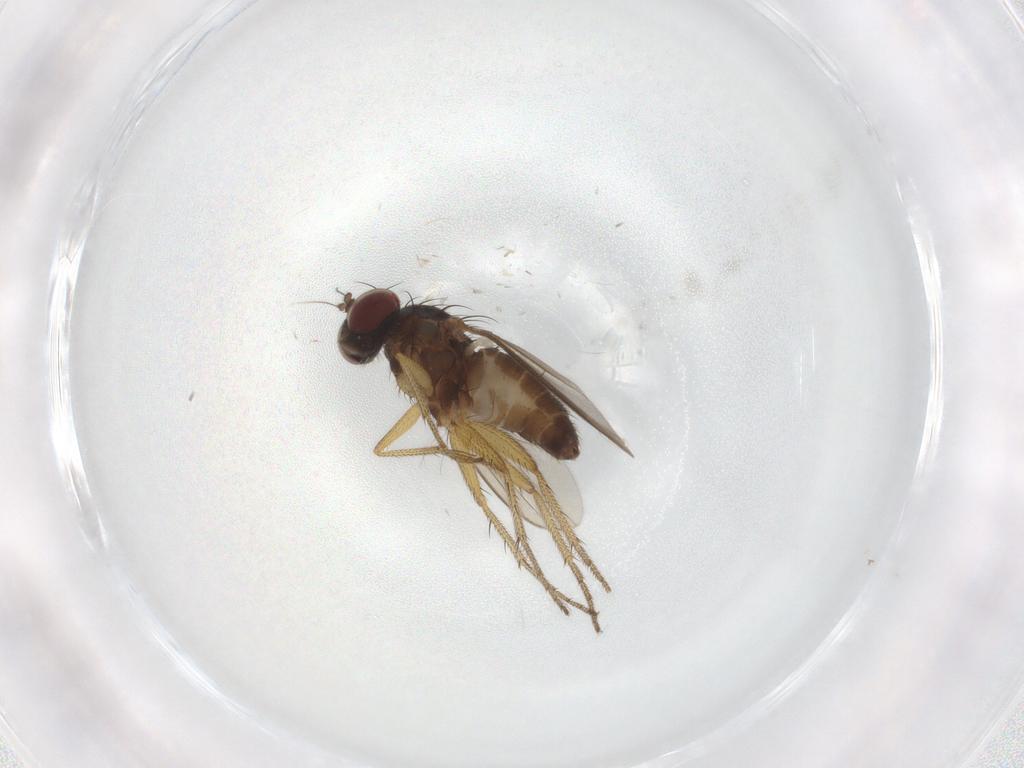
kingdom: Animalia
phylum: Arthropoda
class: Insecta
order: Diptera
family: Dolichopodidae
